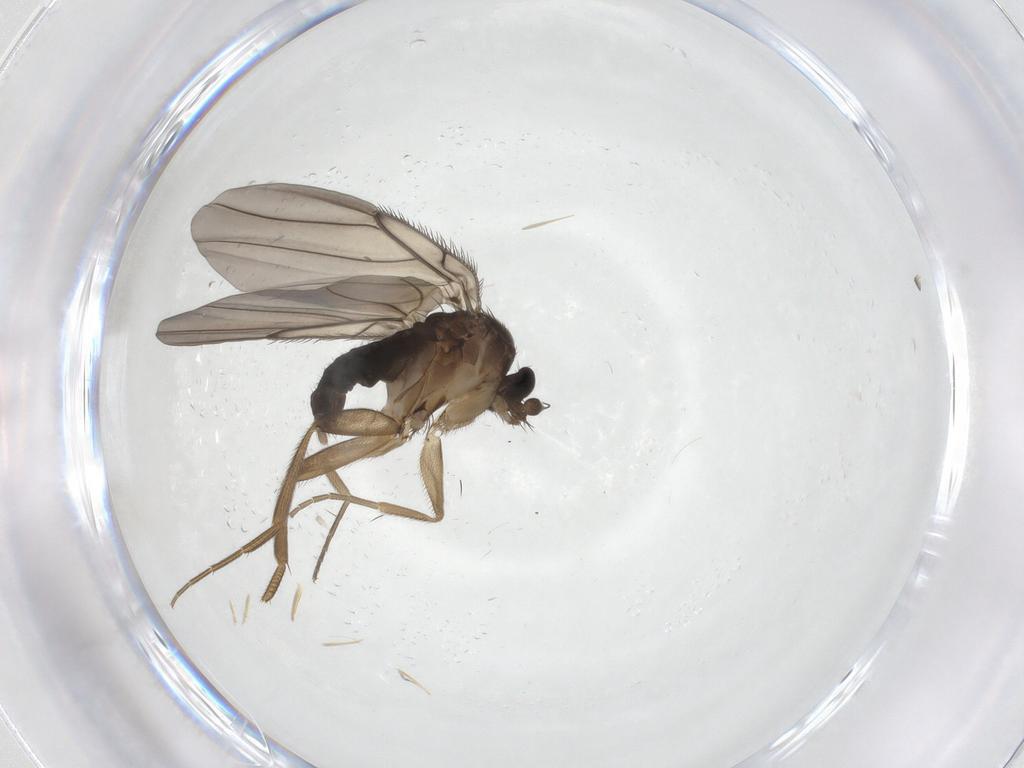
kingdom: Animalia
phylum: Arthropoda
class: Insecta
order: Diptera
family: Phoridae
